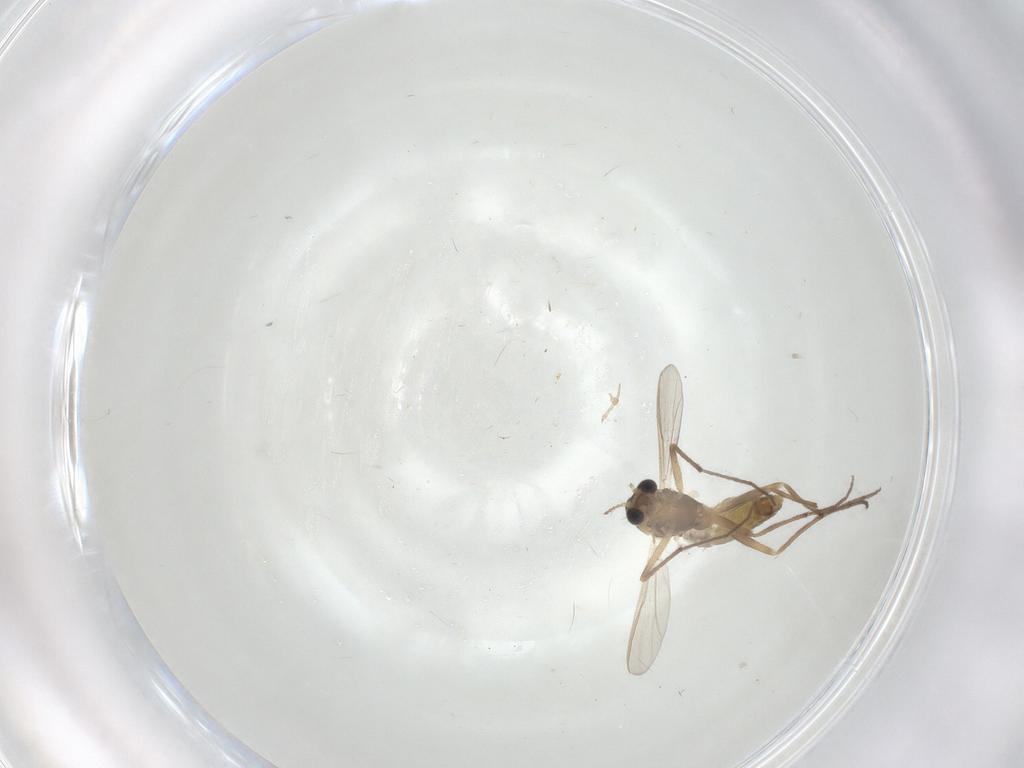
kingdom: Animalia
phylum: Arthropoda
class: Insecta
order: Diptera
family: Chironomidae
